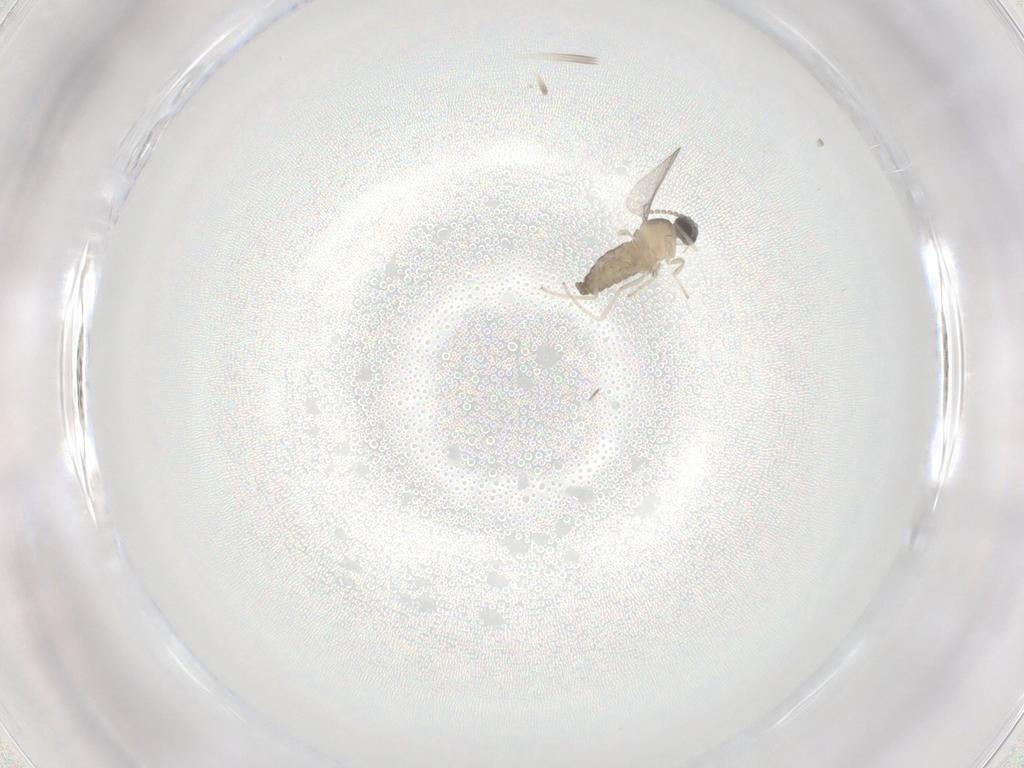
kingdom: Animalia
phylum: Arthropoda
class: Insecta
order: Diptera
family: Cecidomyiidae
